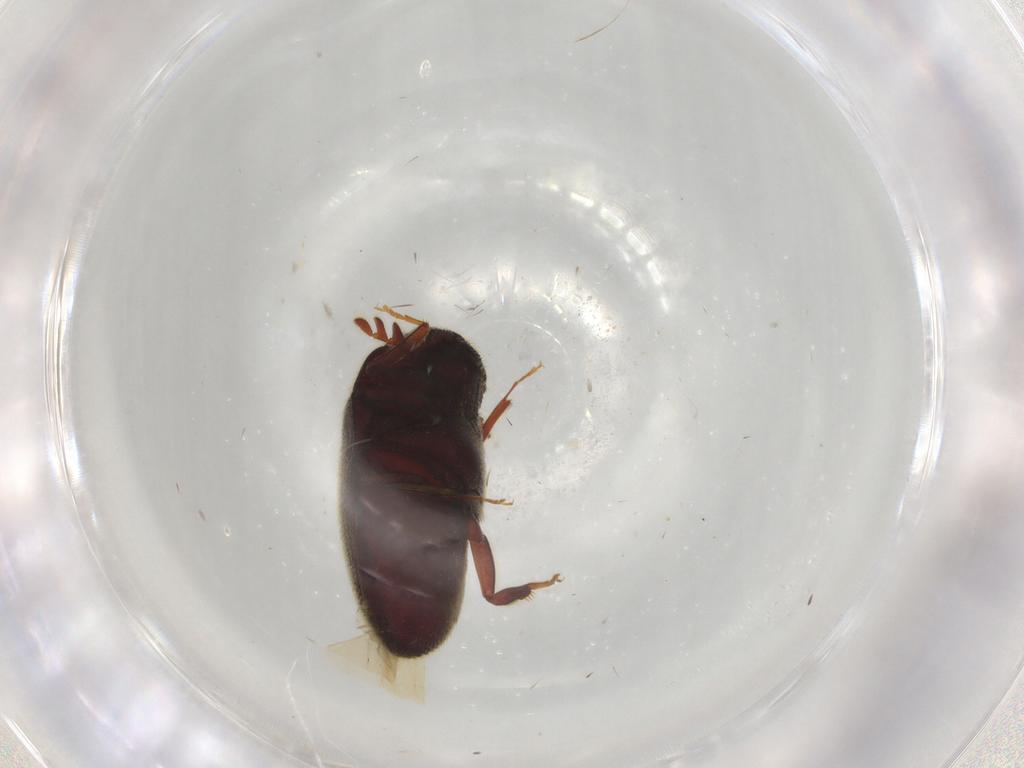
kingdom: Animalia
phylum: Arthropoda
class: Insecta
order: Coleoptera
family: Throscidae
